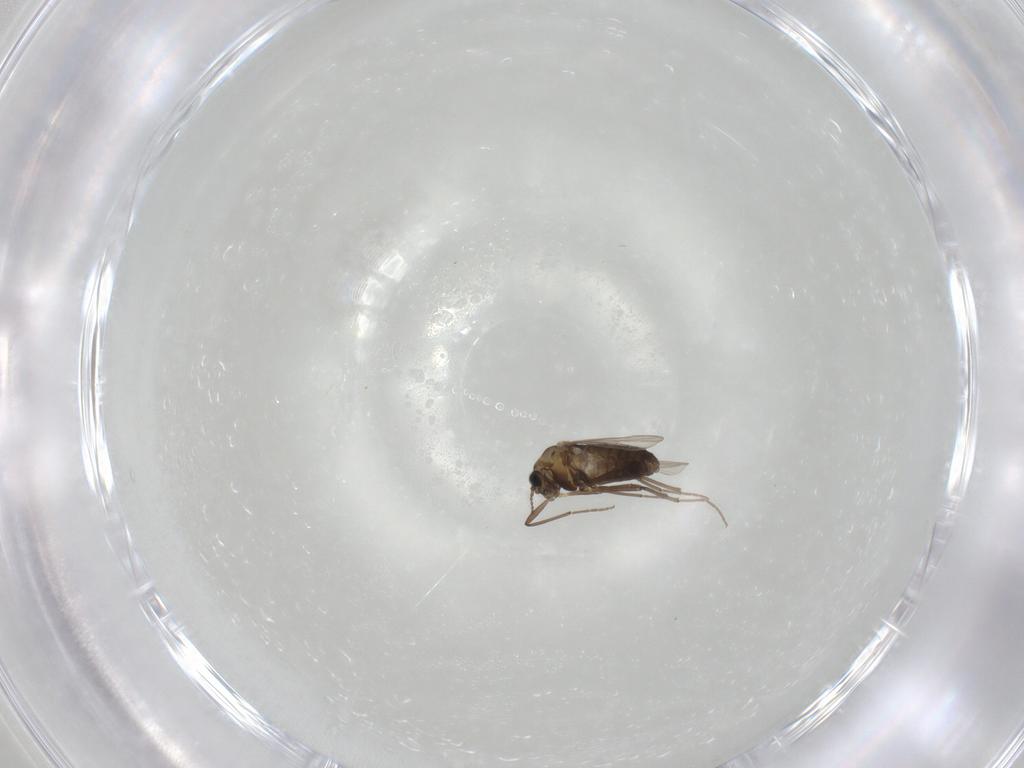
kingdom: Animalia
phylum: Arthropoda
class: Insecta
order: Diptera
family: Chironomidae
